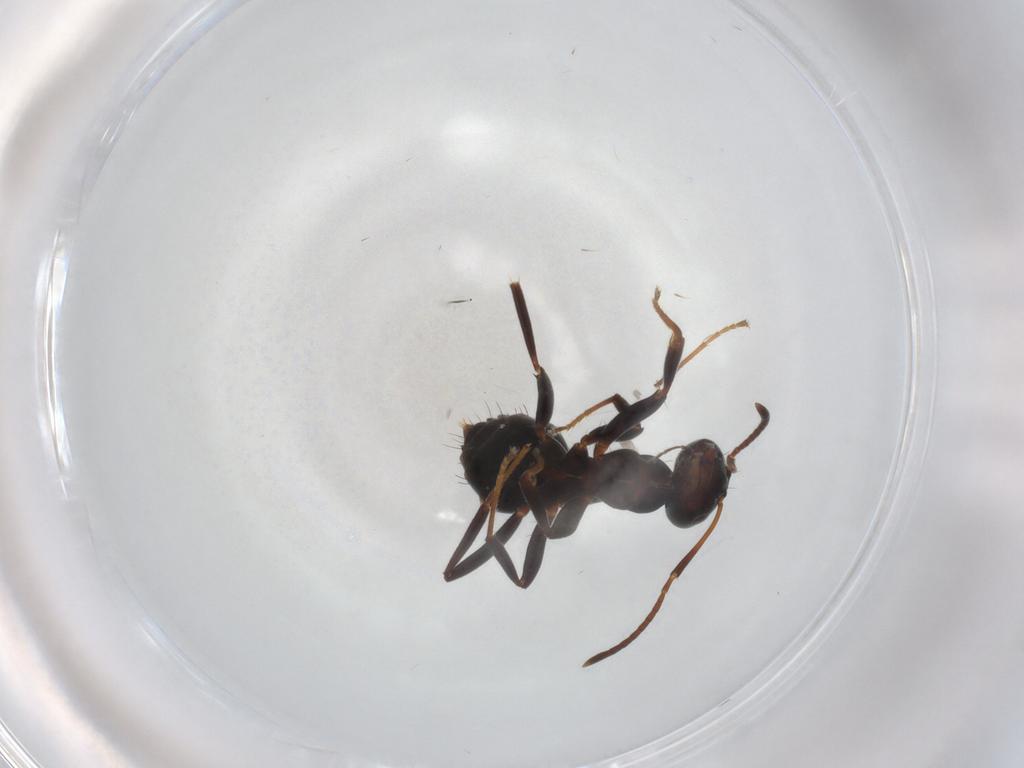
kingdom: Animalia
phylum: Arthropoda
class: Insecta
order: Hymenoptera
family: Formicidae
